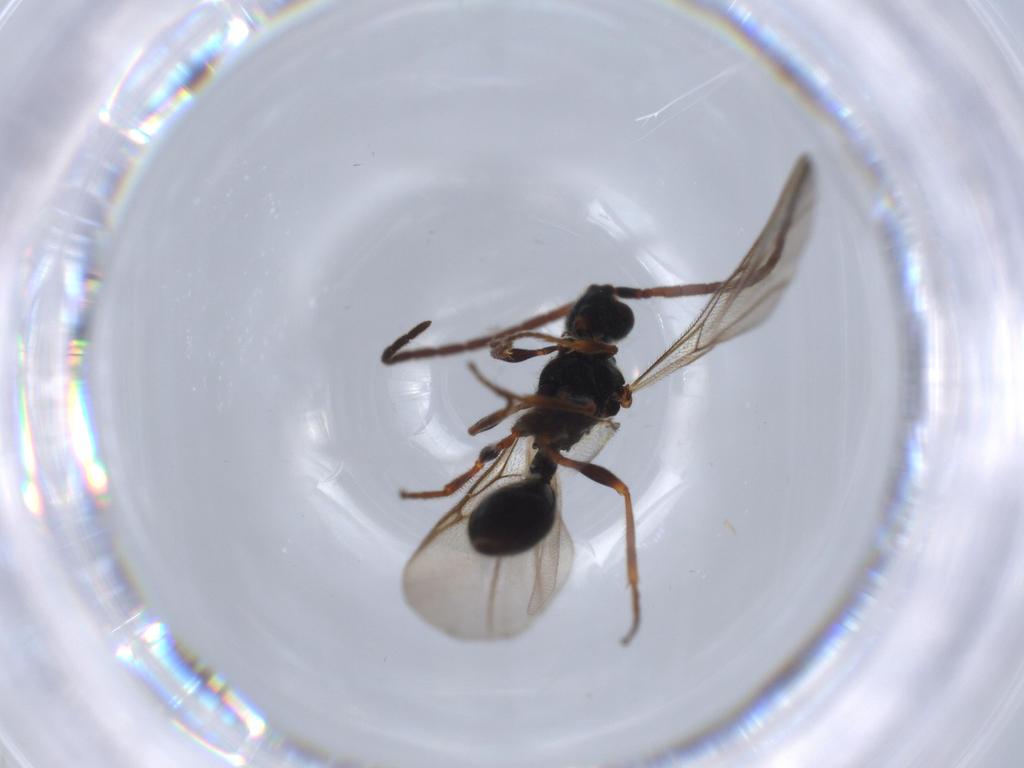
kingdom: Animalia
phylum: Arthropoda
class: Insecta
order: Hymenoptera
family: Diapriidae
